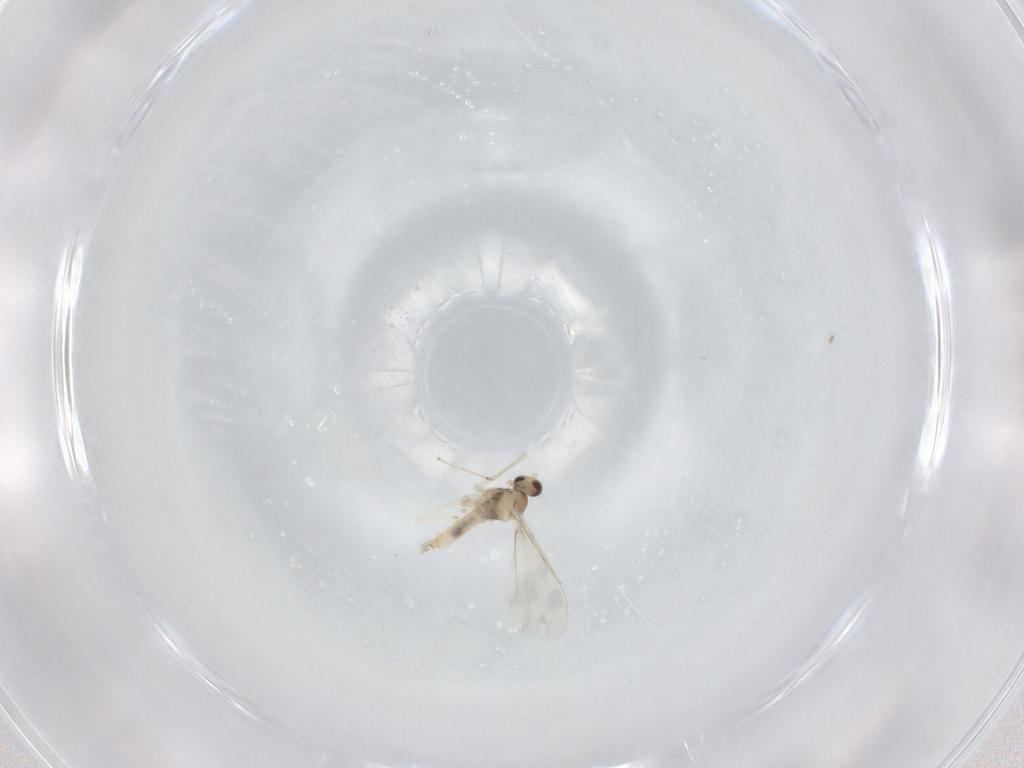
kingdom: Animalia
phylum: Arthropoda
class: Insecta
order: Diptera
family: Cecidomyiidae
